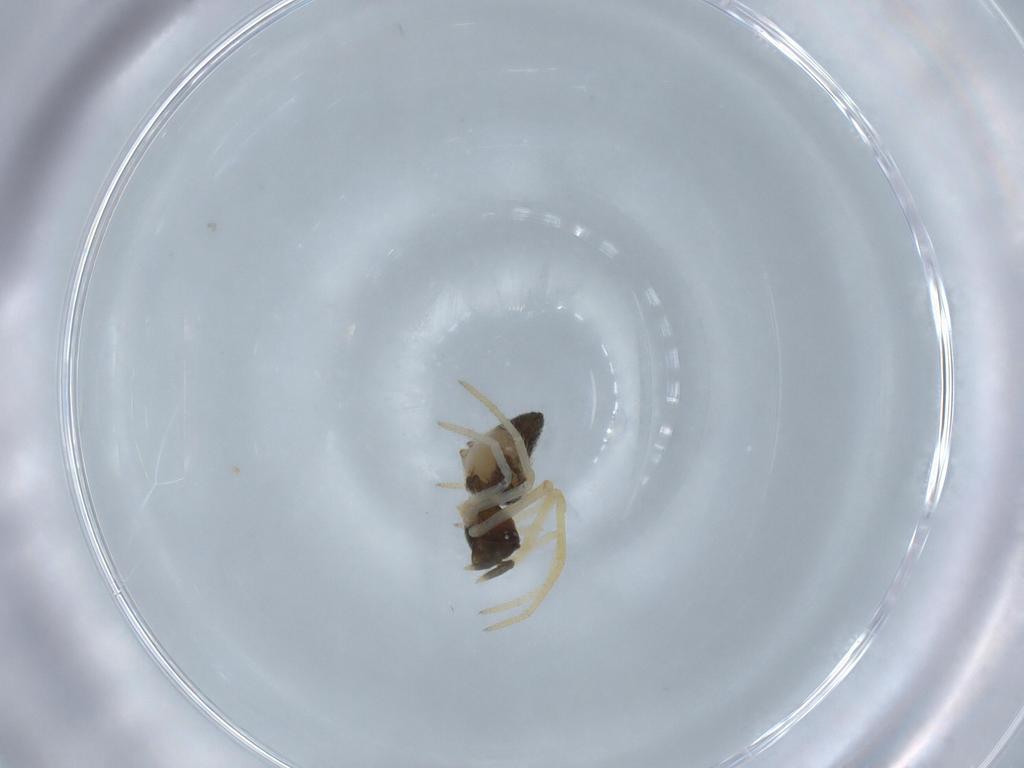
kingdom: Animalia
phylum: Arthropoda
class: Arachnida
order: Araneae
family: Theridiidae
